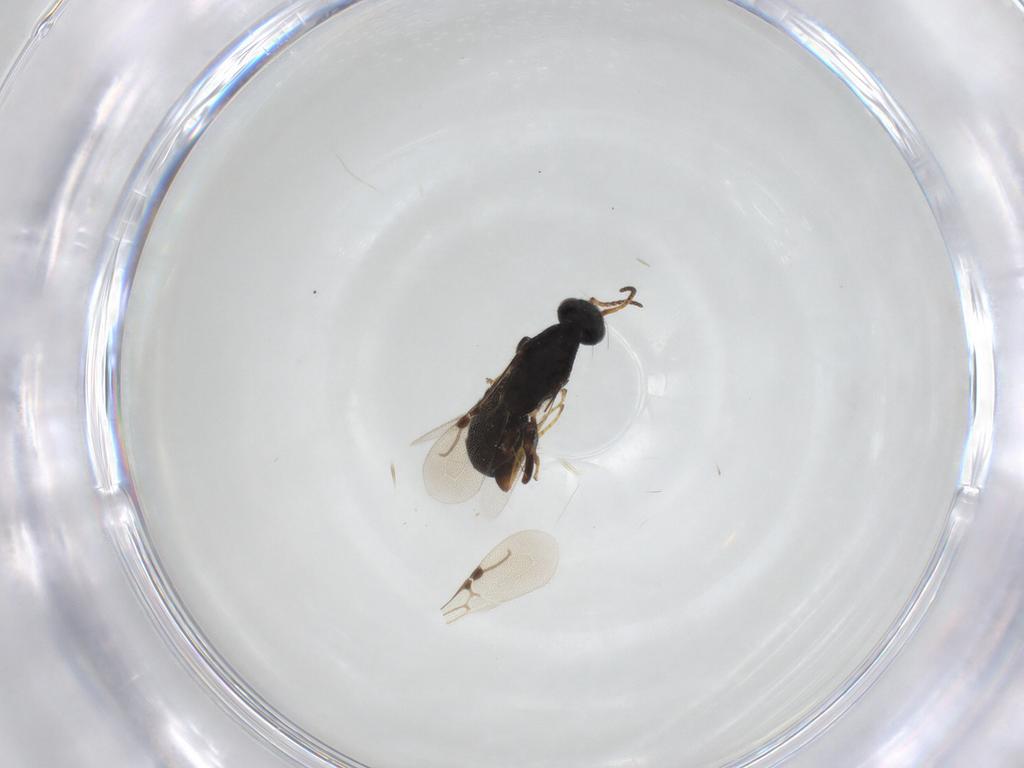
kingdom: Animalia
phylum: Arthropoda
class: Insecta
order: Hymenoptera
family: Bethylidae
